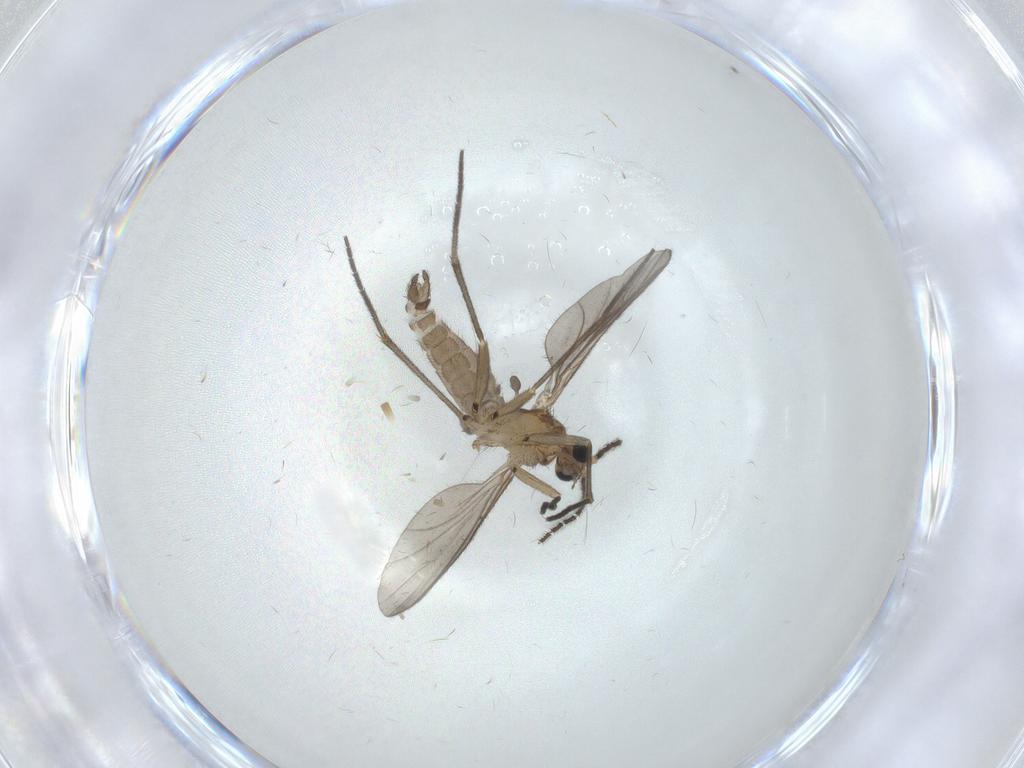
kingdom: Animalia
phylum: Arthropoda
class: Insecta
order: Diptera
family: Sciaridae
